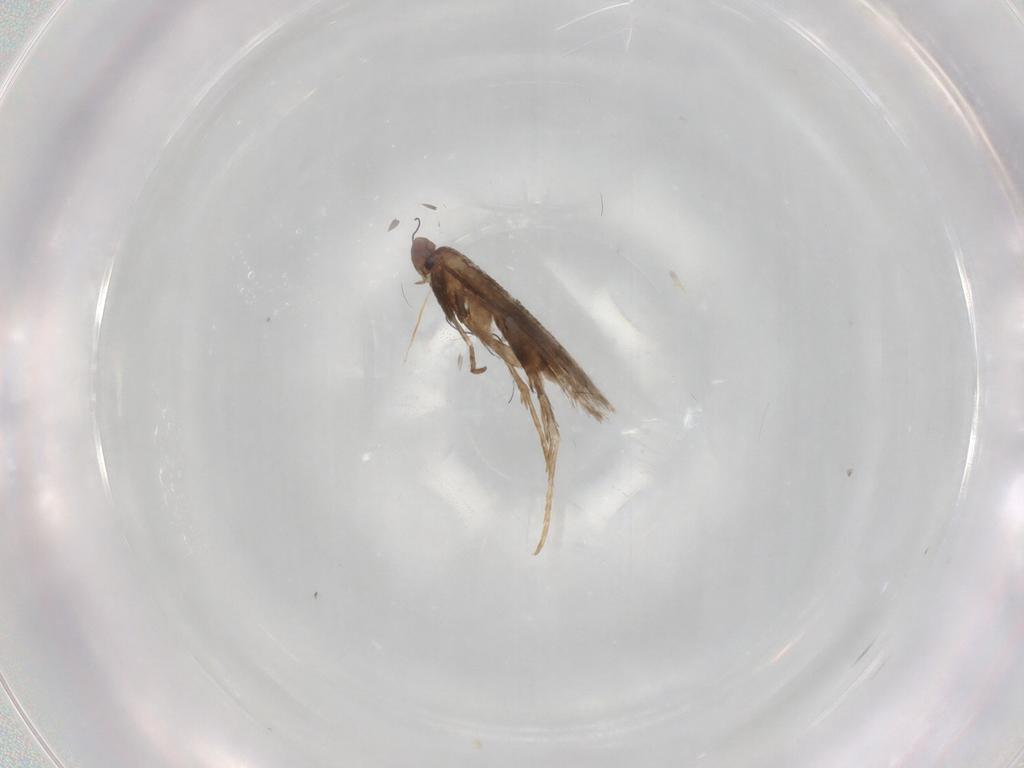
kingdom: Animalia
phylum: Arthropoda
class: Insecta
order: Lepidoptera
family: Gracillariidae
